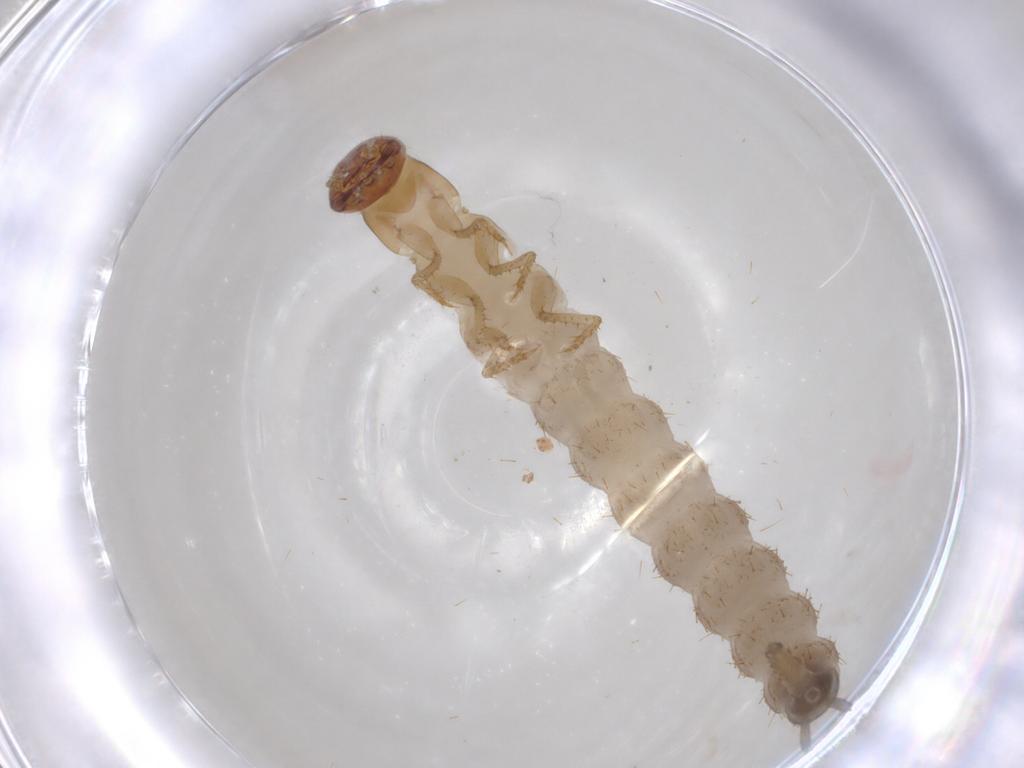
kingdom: Animalia
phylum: Arthropoda
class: Insecta
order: Coleoptera
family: Staphylinidae
